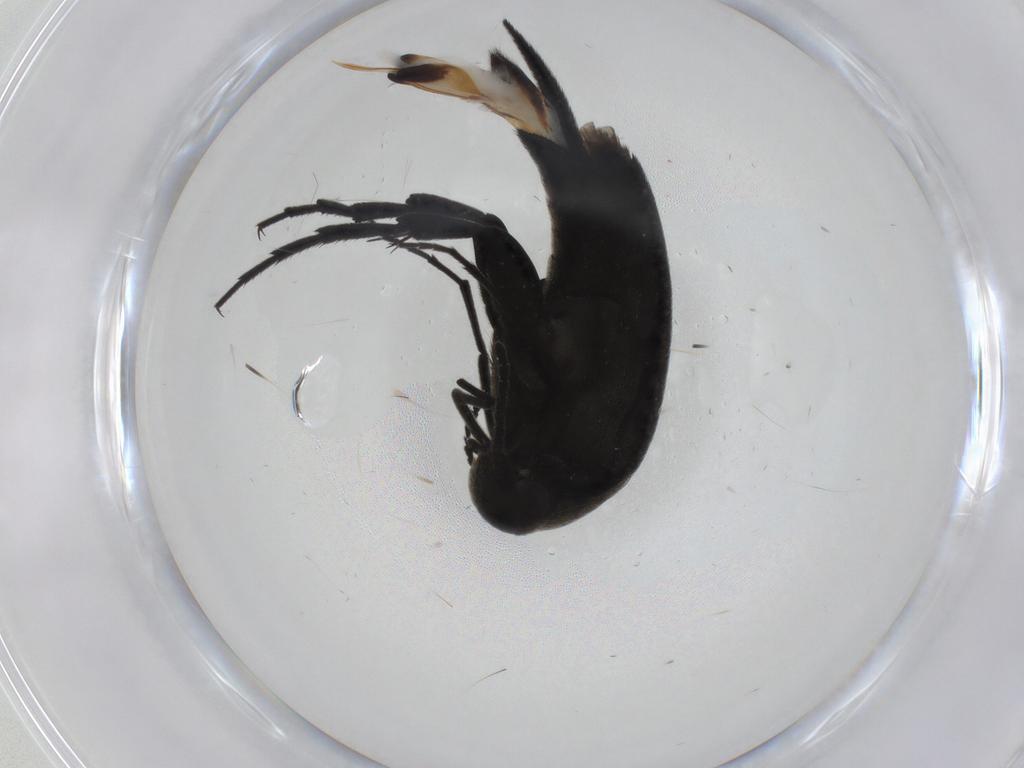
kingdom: Animalia
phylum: Arthropoda
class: Insecta
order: Coleoptera
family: Mordellidae
